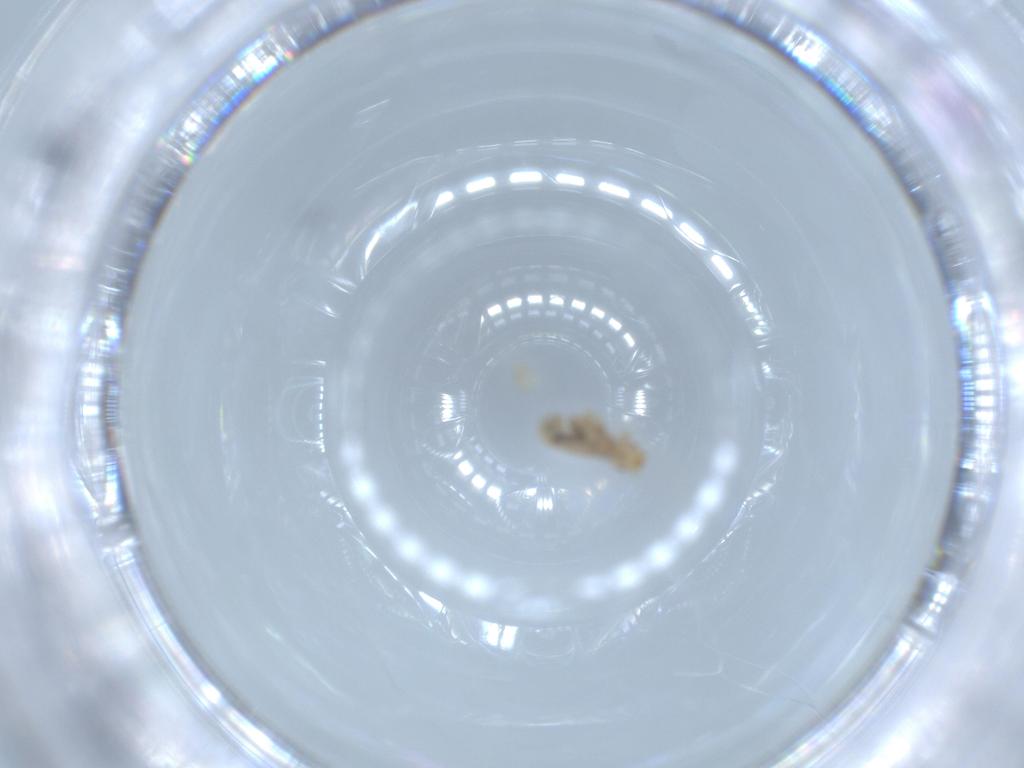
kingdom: Animalia
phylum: Arthropoda
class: Insecta
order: Psocodea
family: Liposcelididae
